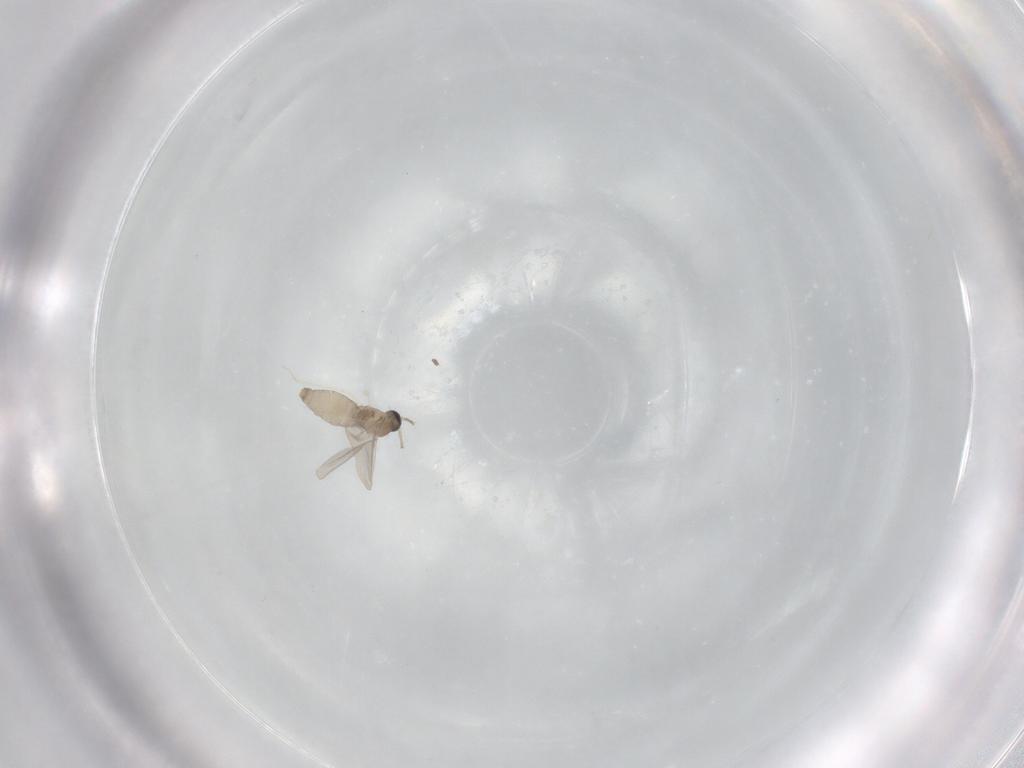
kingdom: Animalia
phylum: Arthropoda
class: Insecta
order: Diptera
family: Cecidomyiidae
